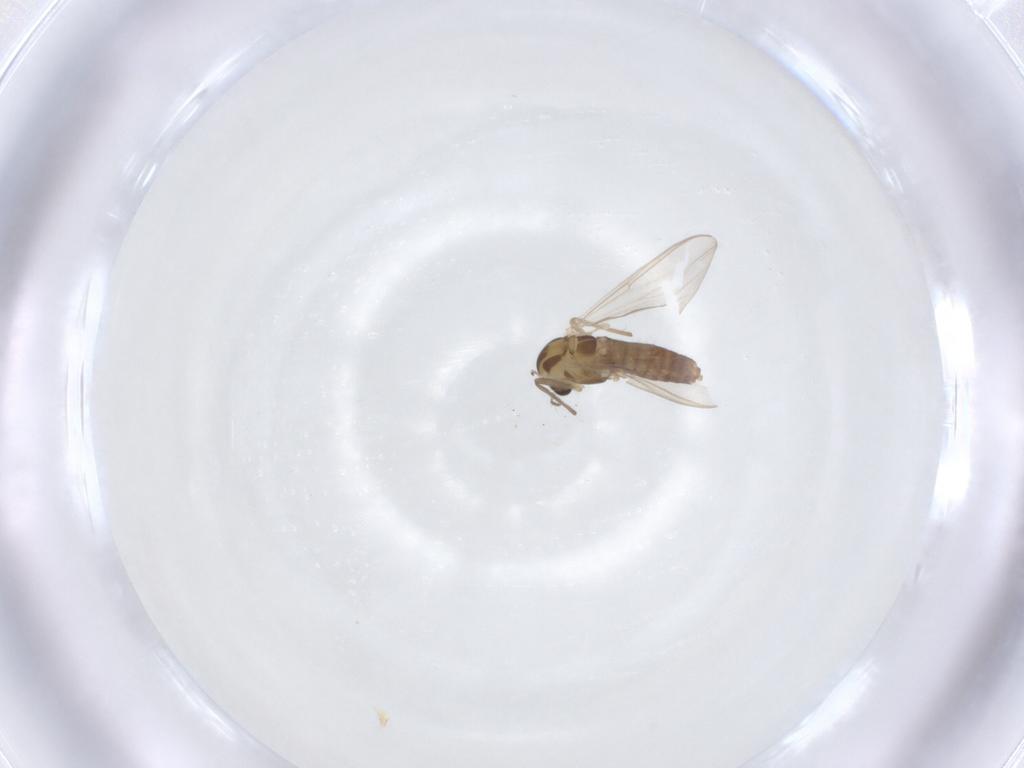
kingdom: Animalia
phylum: Arthropoda
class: Insecta
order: Diptera
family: Chironomidae
